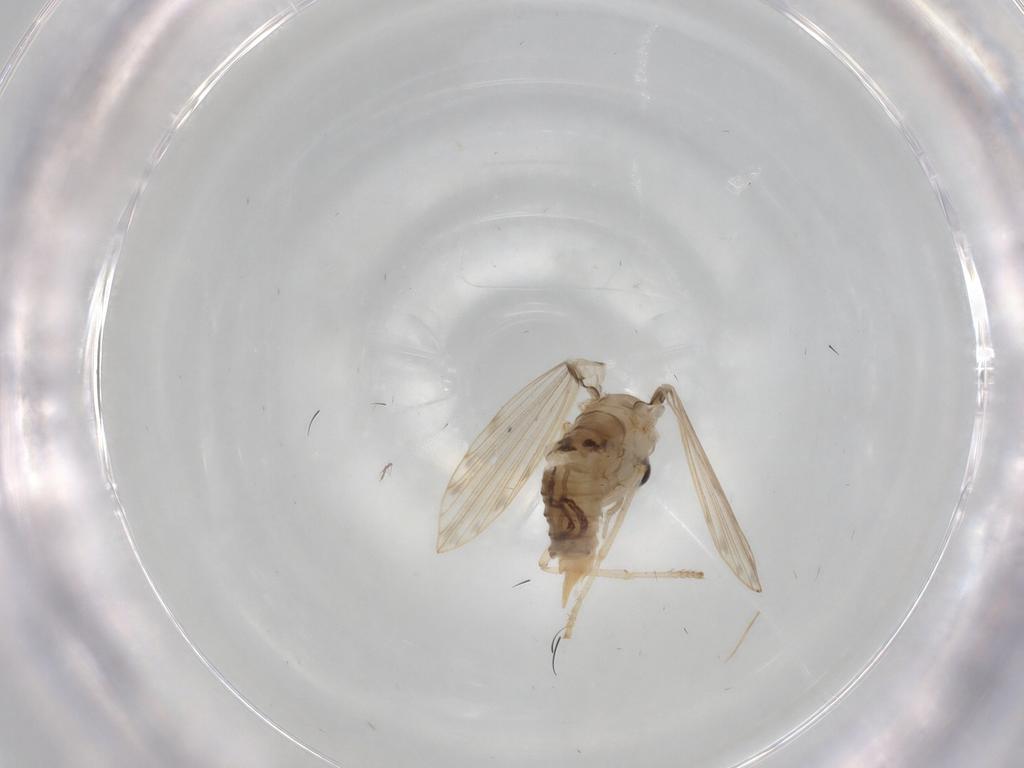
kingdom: Animalia
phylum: Arthropoda
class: Insecta
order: Diptera
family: Psychodidae
